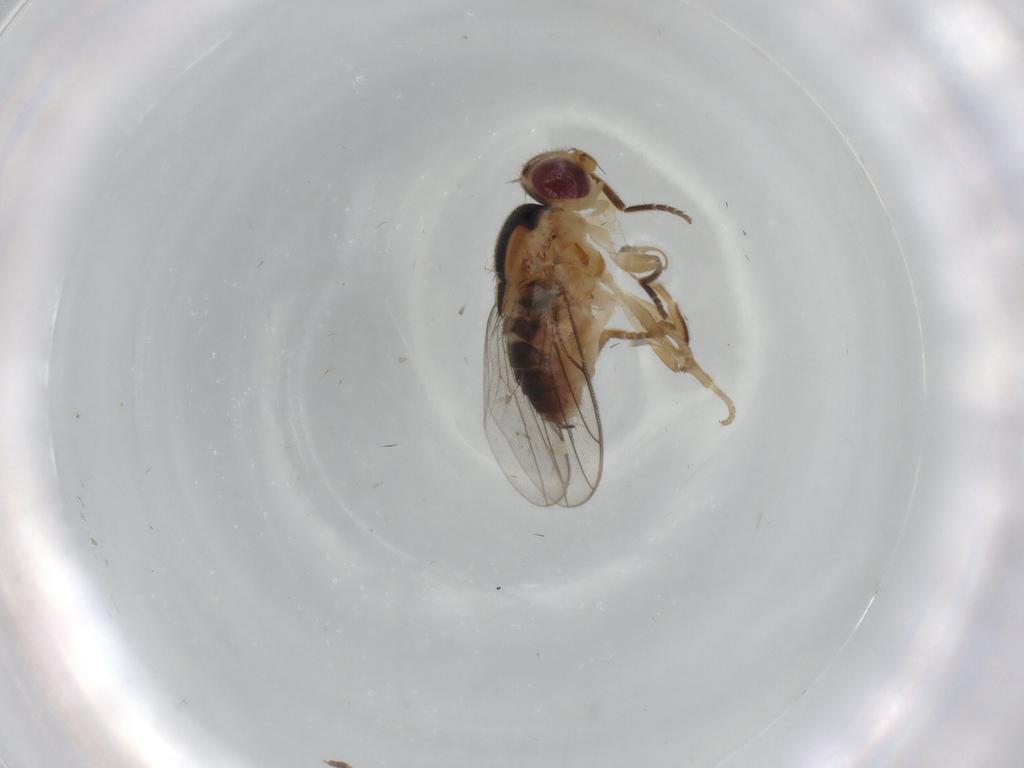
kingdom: Animalia
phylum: Arthropoda
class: Insecta
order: Diptera
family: Chloropidae
